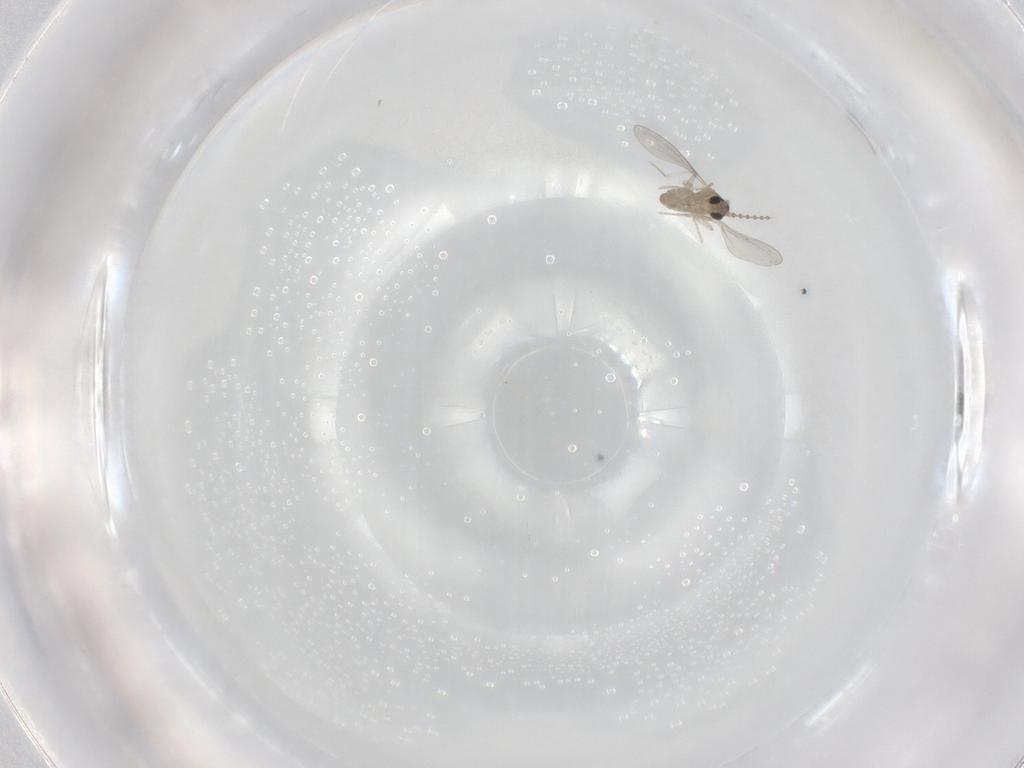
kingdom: Animalia
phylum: Arthropoda
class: Insecta
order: Diptera
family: Cecidomyiidae
